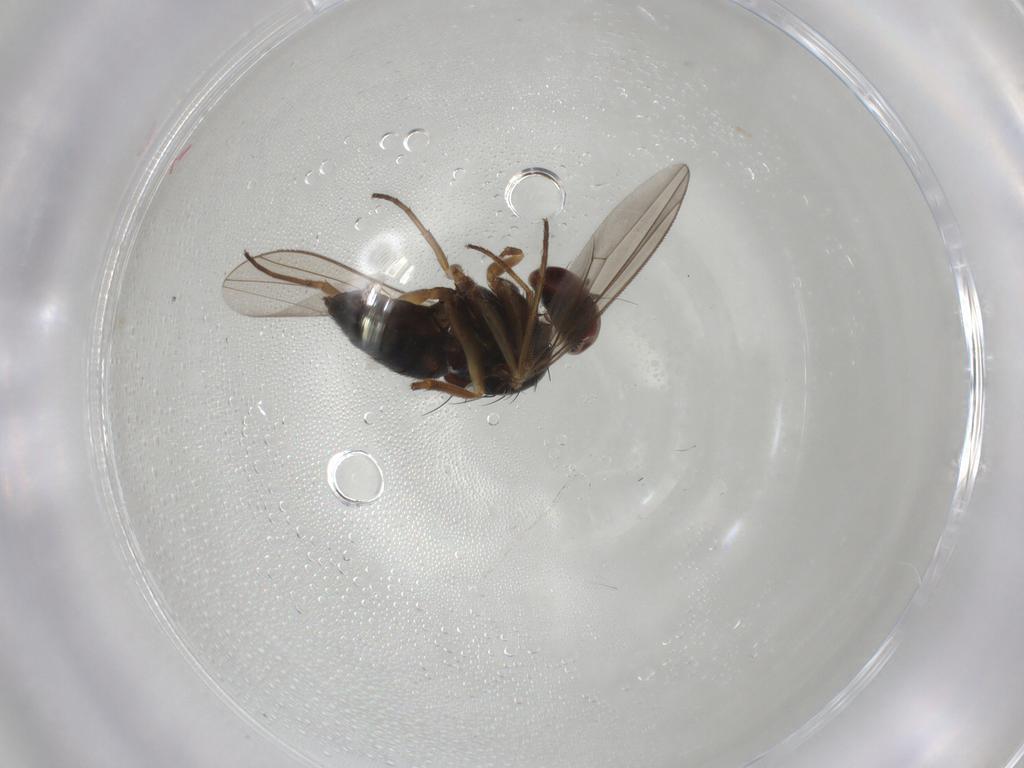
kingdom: Animalia
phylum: Arthropoda
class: Insecta
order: Diptera
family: Dolichopodidae
